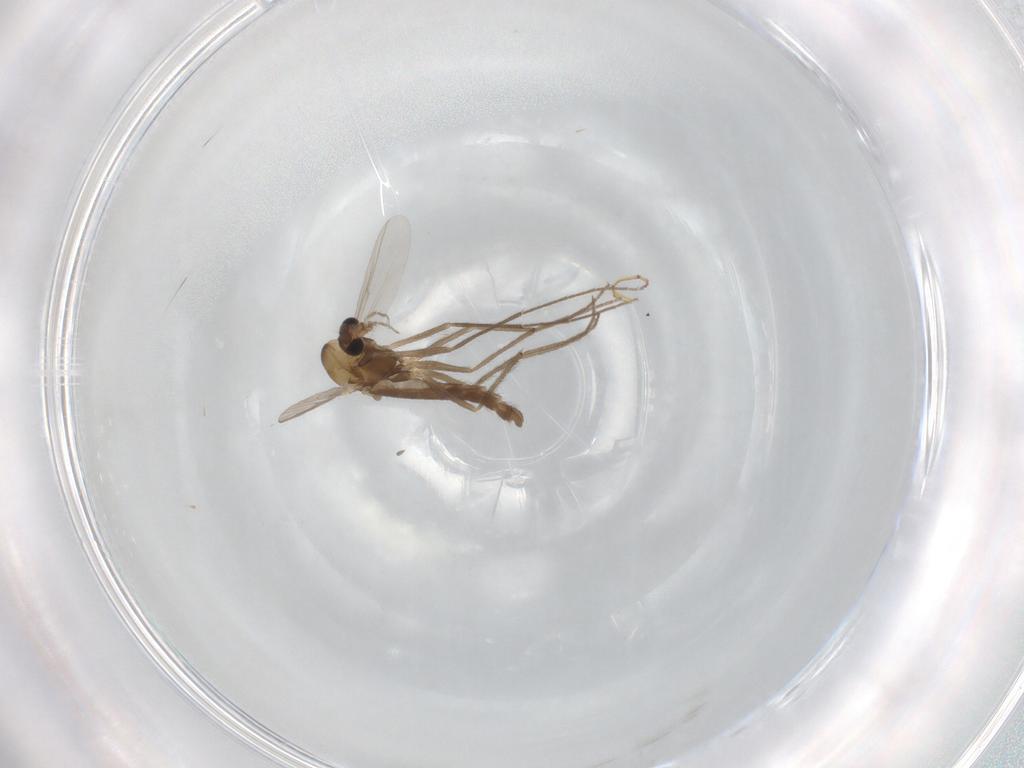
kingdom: Animalia
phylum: Arthropoda
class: Insecta
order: Diptera
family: Chironomidae
